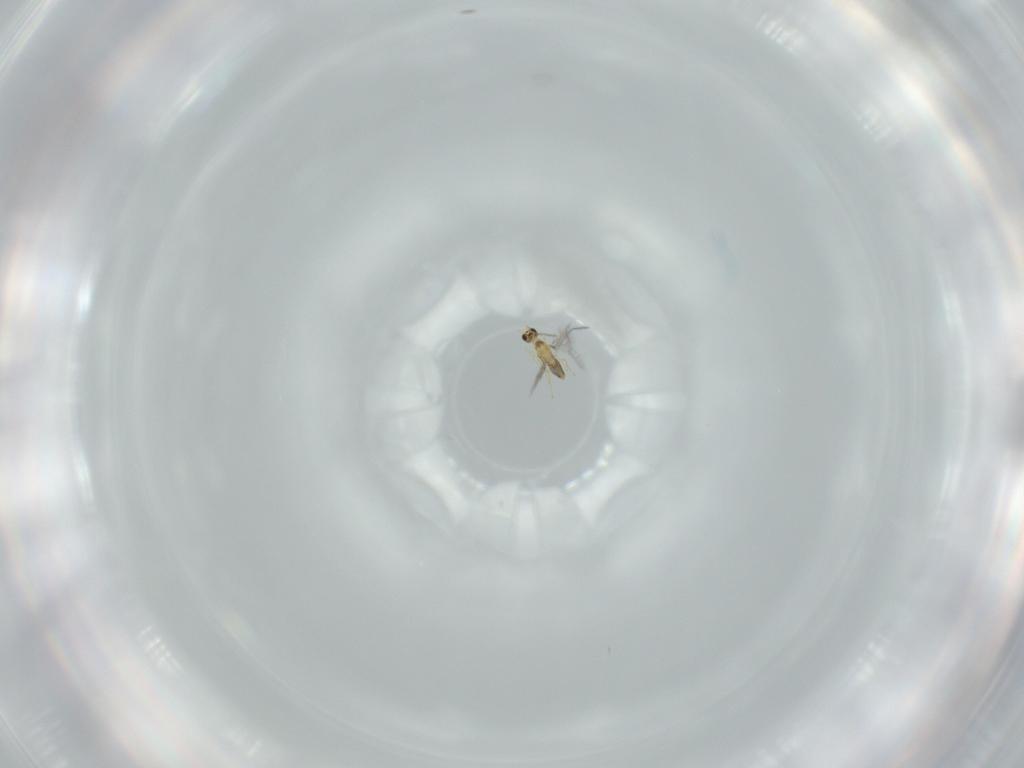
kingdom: Animalia
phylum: Arthropoda
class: Insecta
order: Hymenoptera
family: Mymaridae
